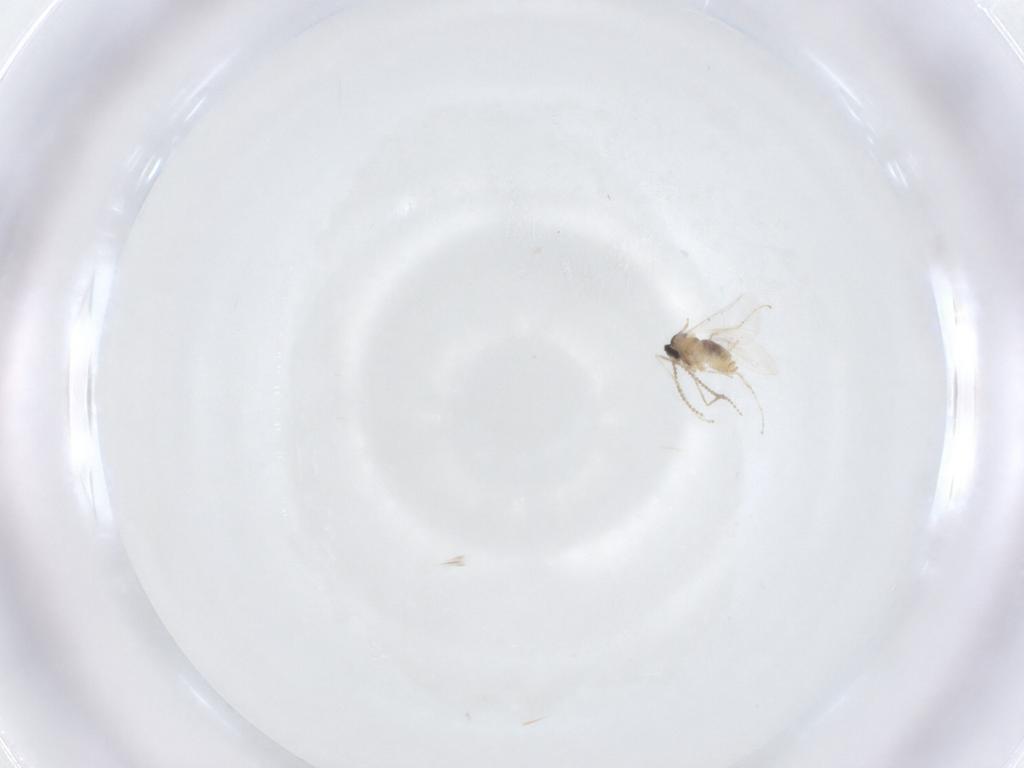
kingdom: Animalia
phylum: Arthropoda
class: Insecta
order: Diptera
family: Cecidomyiidae
